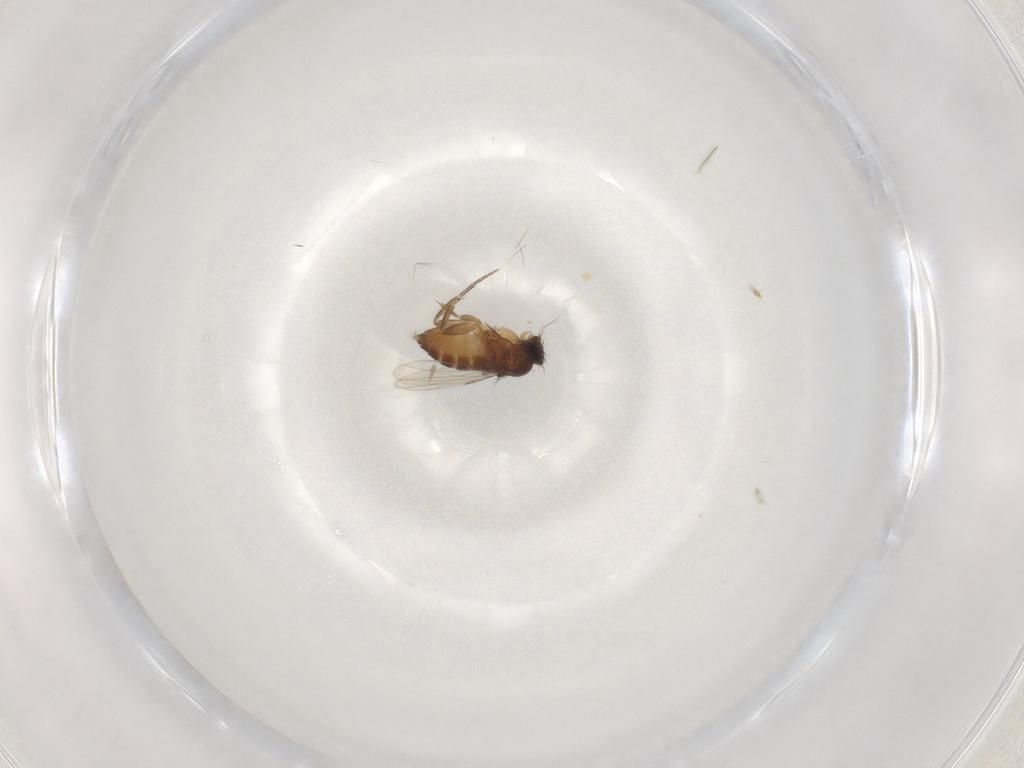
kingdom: Animalia
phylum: Arthropoda
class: Insecta
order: Diptera
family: Phoridae
